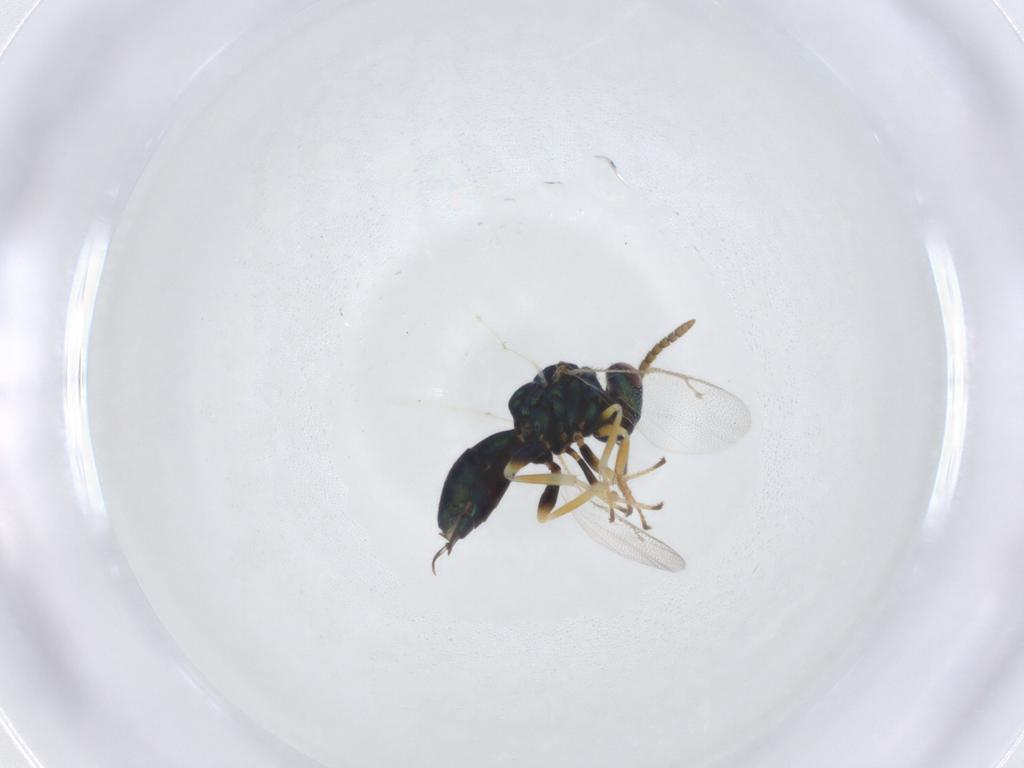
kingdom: Animalia
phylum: Arthropoda
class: Insecta
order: Hymenoptera
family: Pteromalidae
